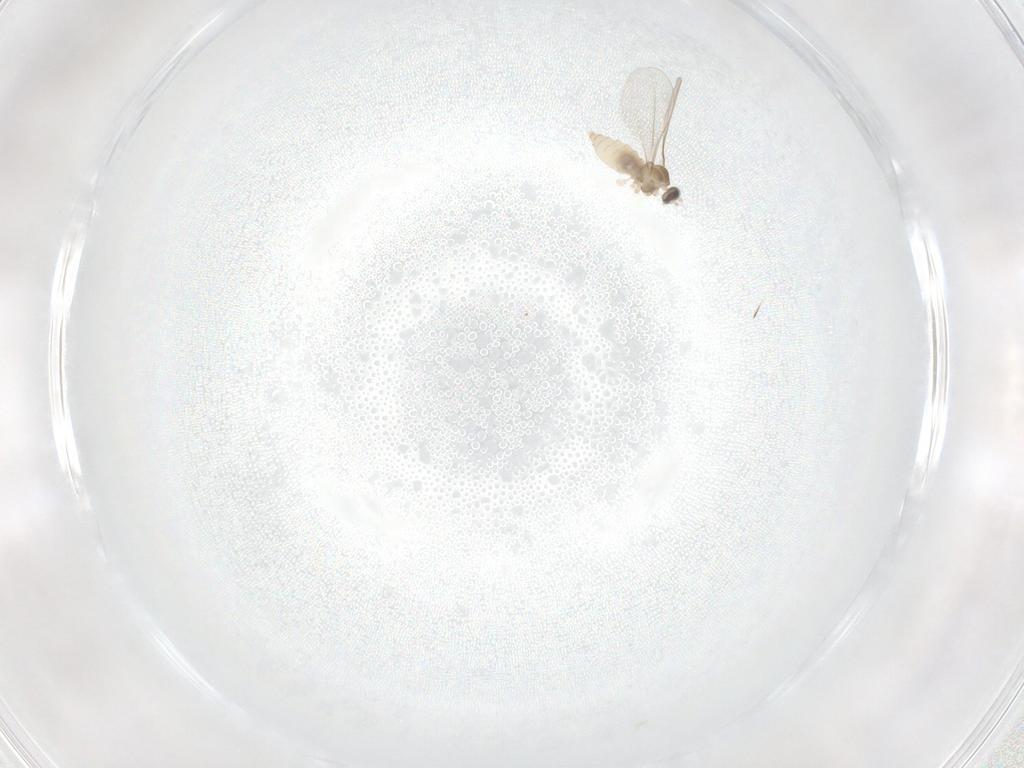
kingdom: Animalia
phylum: Arthropoda
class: Insecta
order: Diptera
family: Cecidomyiidae
